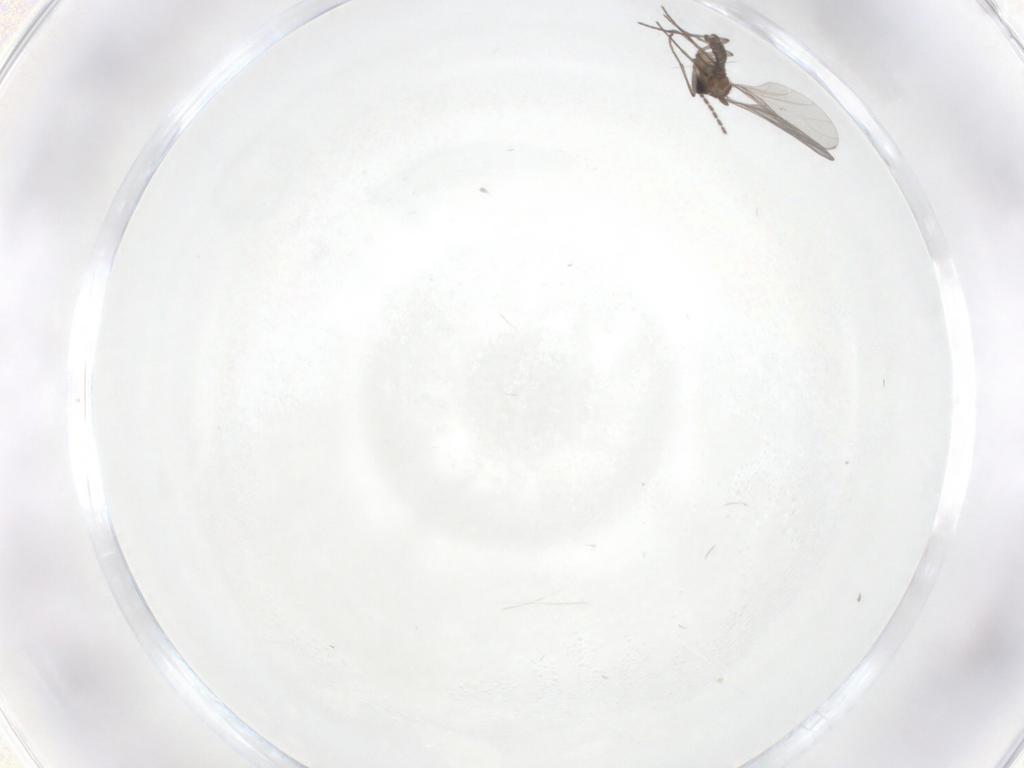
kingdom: Animalia
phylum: Arthropoda
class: Insecta
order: Diptera
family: Sciaridae
